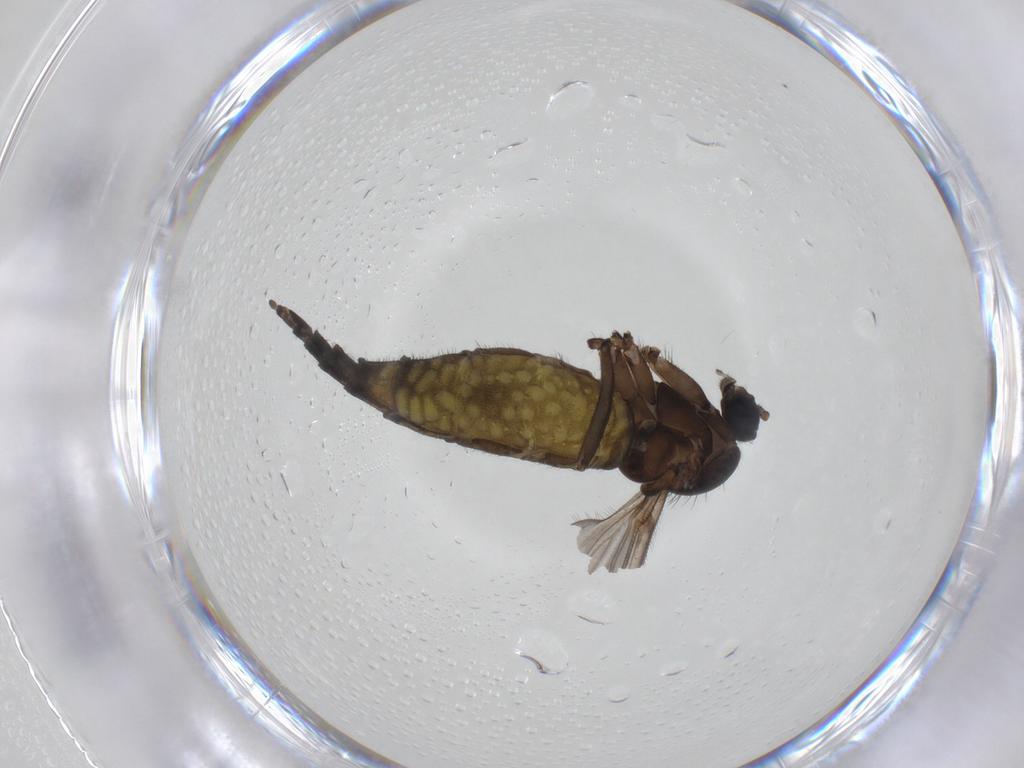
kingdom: Animalia
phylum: Arthropoda
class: Insecta
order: Diptera
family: Sciaridae
